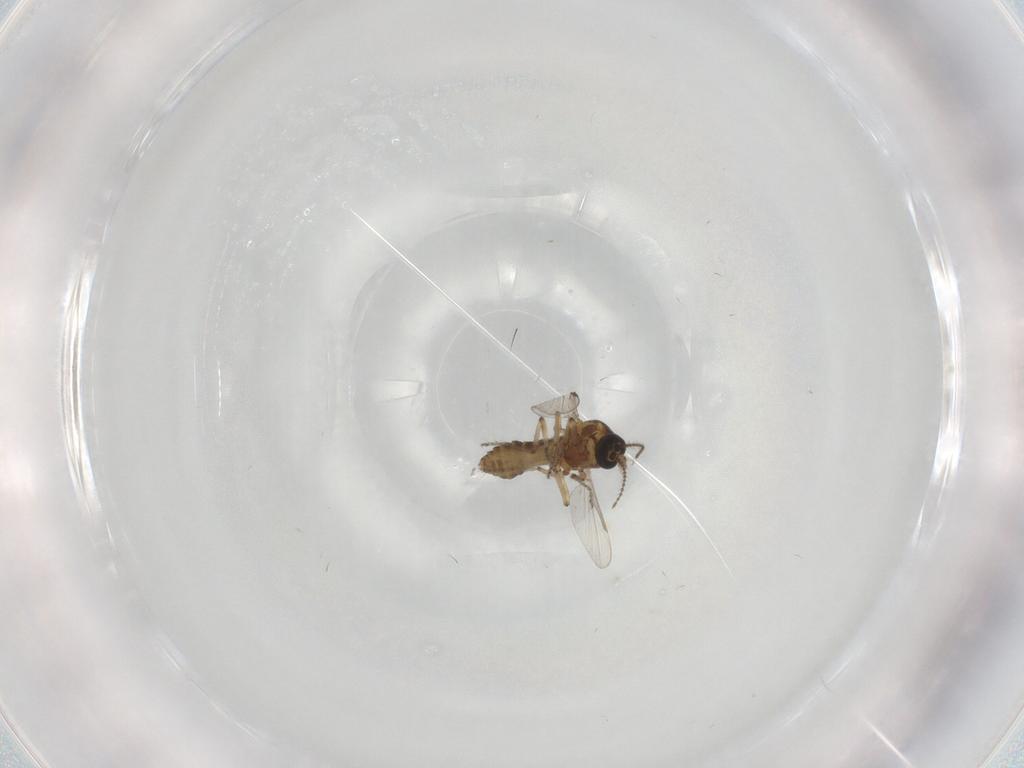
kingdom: Animalia
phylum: Arthropoda
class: Insecta
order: Diptera
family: Ceratopogonidae
